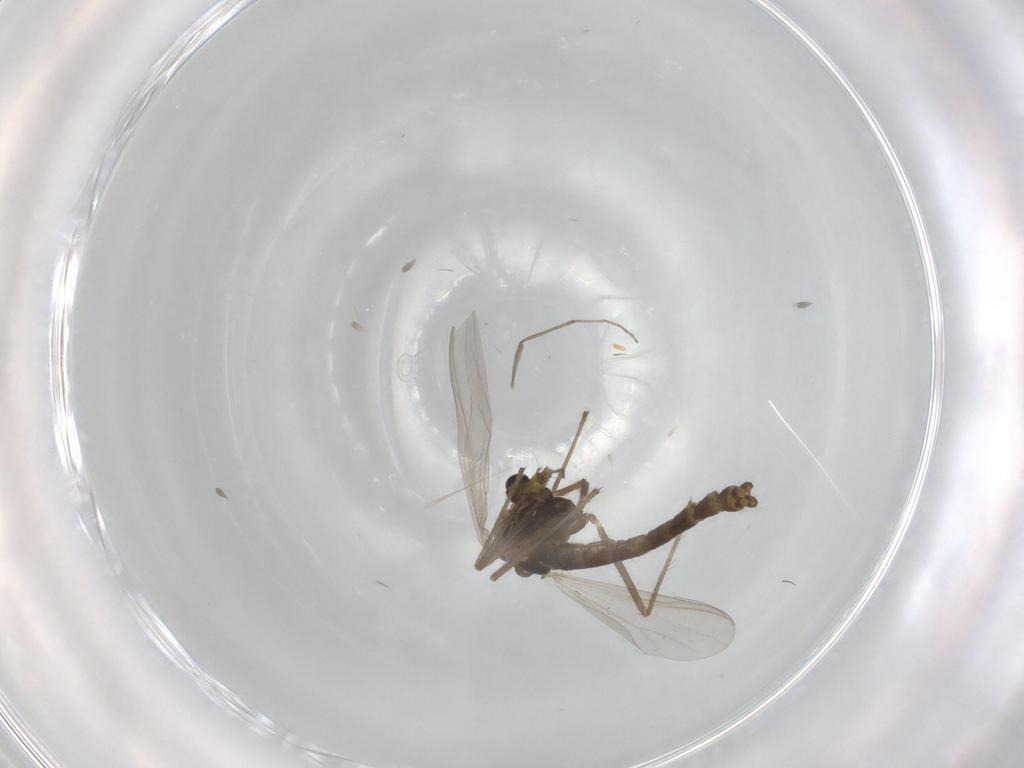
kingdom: Animalia
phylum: Arthropoda
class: Insecta
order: Diptera
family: Chironomidae
